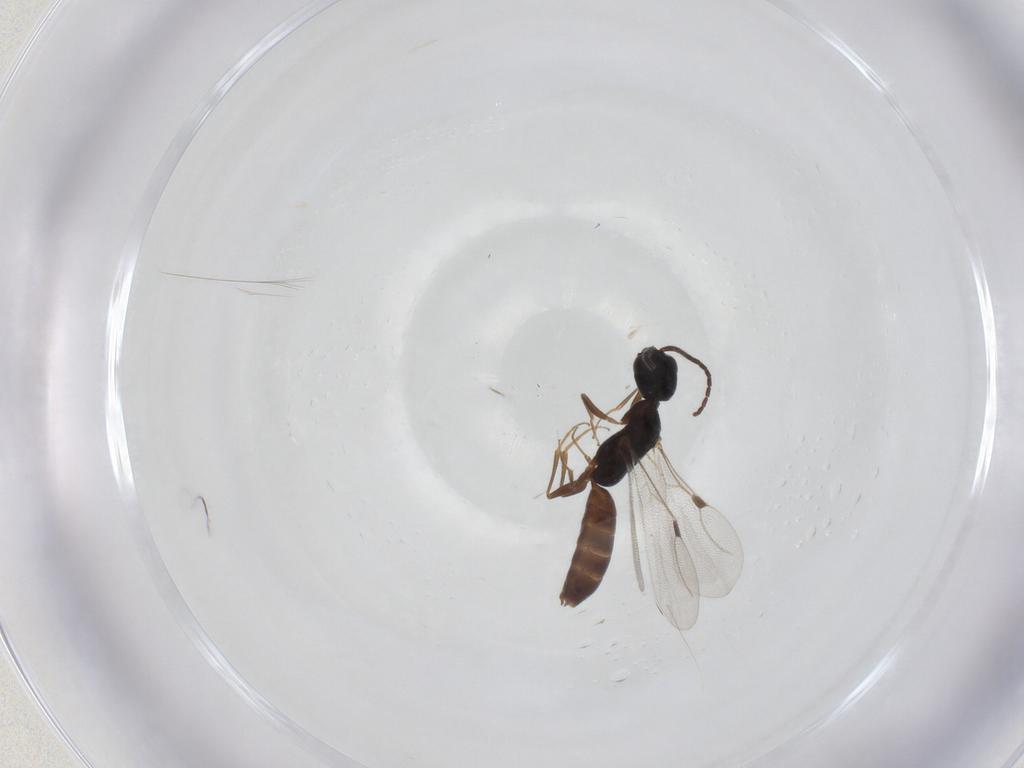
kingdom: Animalia
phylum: Arthropoda
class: Insecta
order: Hymenoptera
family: Bethylidae
